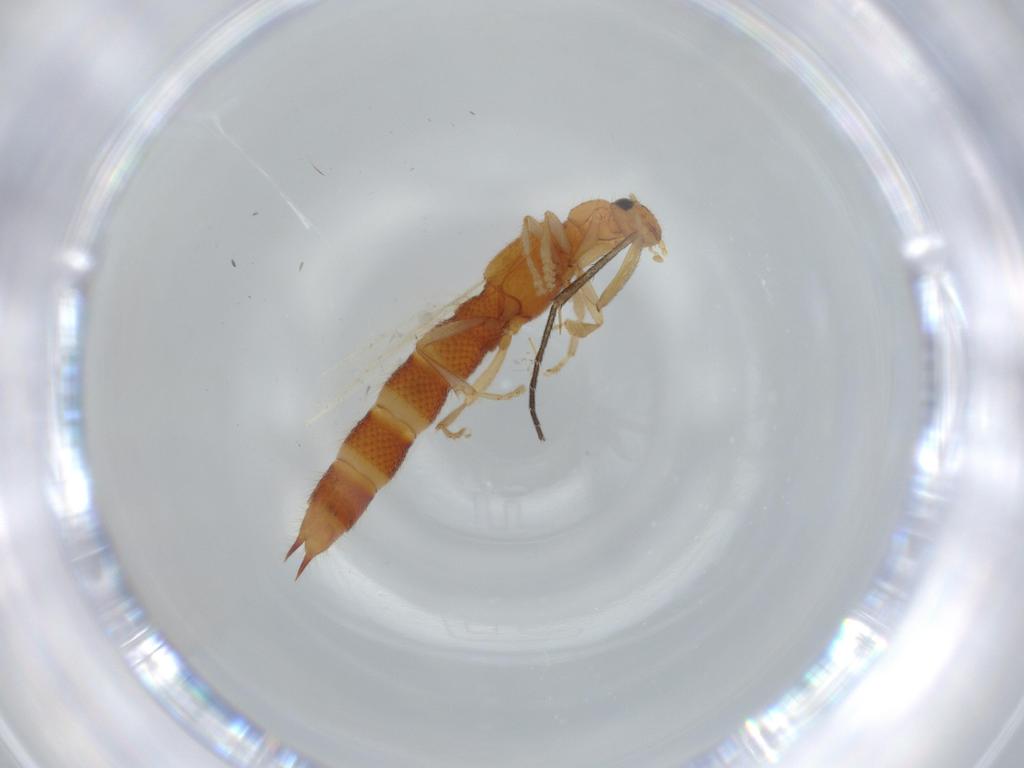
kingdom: Animalia
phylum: Arthropoda
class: Insecta
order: Coleoptera
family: Staphylinidae
